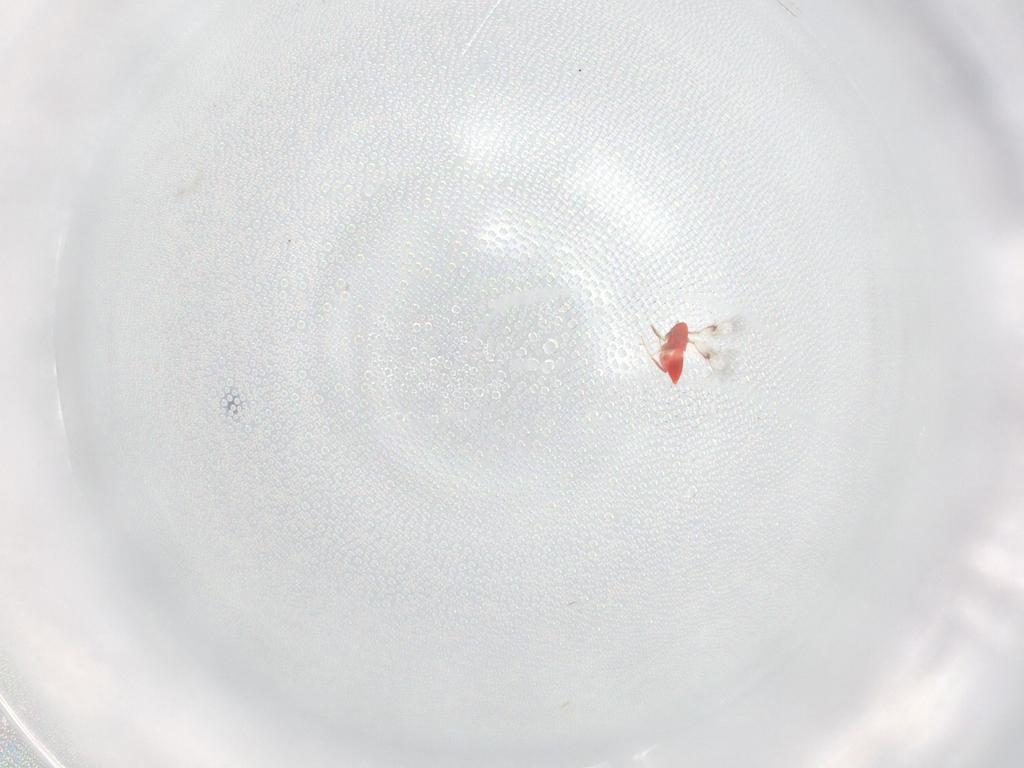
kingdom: Animalia
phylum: Arthropoda
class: Insecta
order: Hymenoptera
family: Trichogrammatidae
